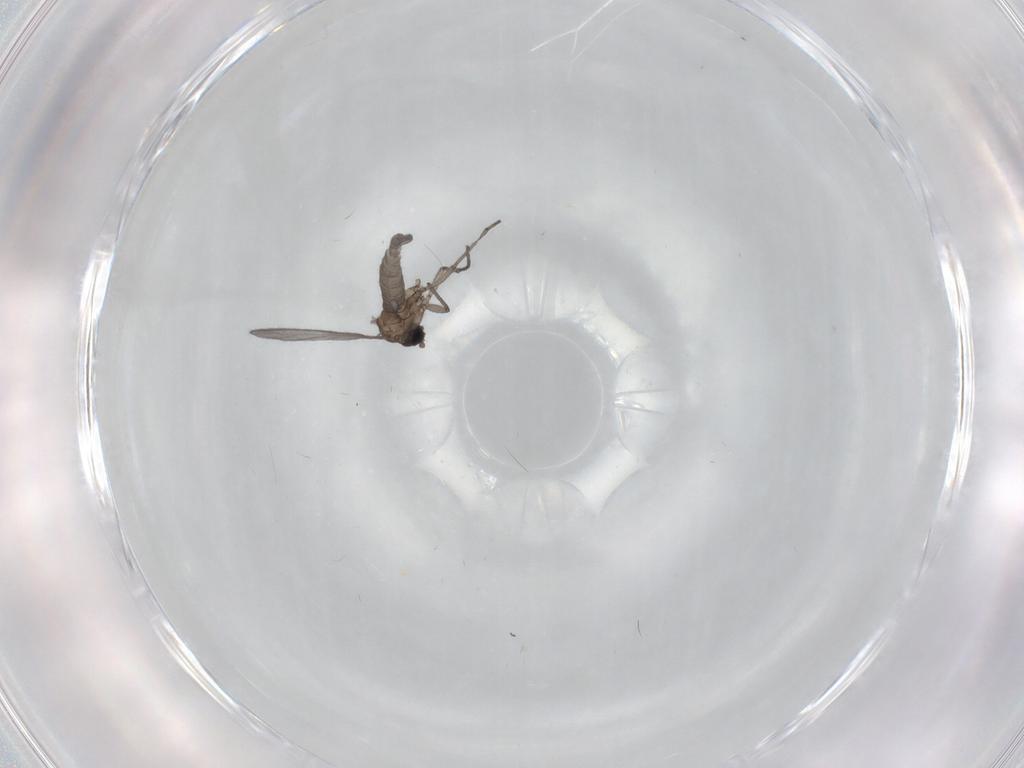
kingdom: Animalia
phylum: Arthropoda
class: Insecta
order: Diptera
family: Sciaridae
